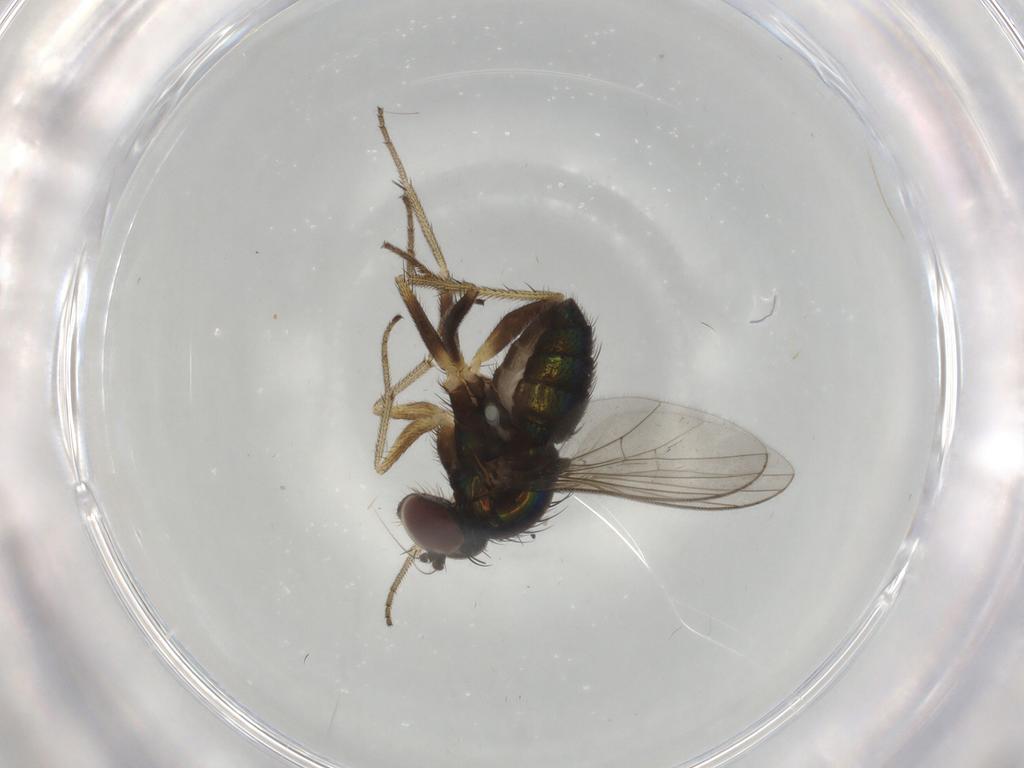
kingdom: Animalia
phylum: Arthropoda
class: Insecta
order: Diptera
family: Dolichopodidae
